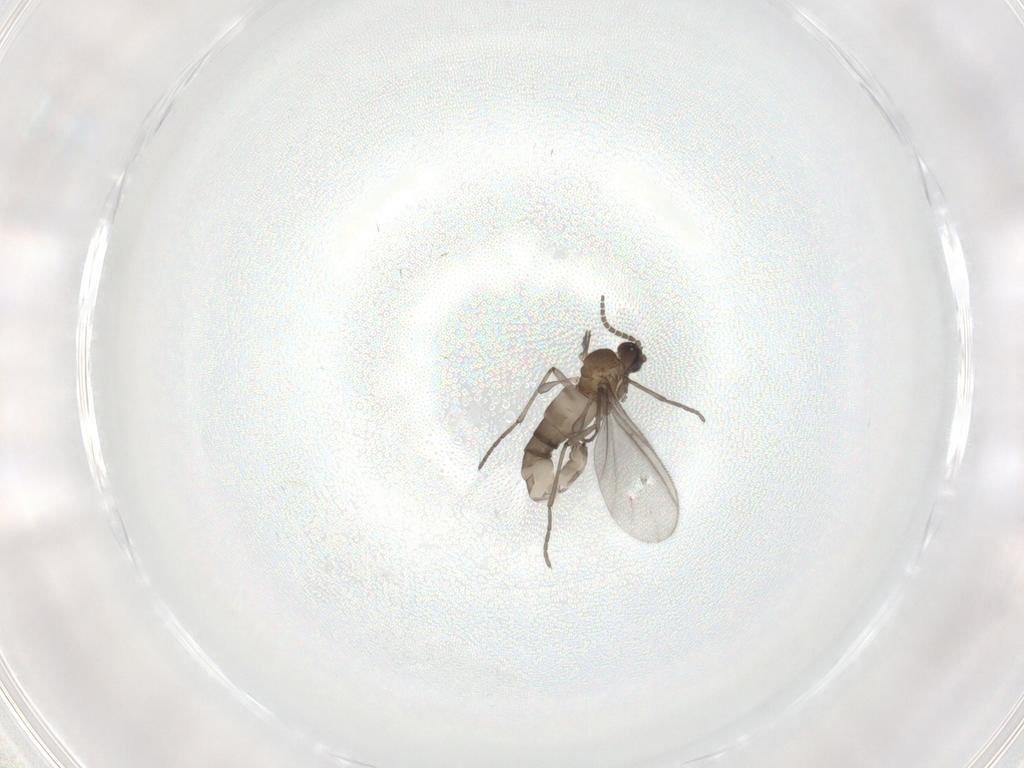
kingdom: Animalia
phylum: Arthropoda
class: Insecta
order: Diptera
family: Sciaridae
